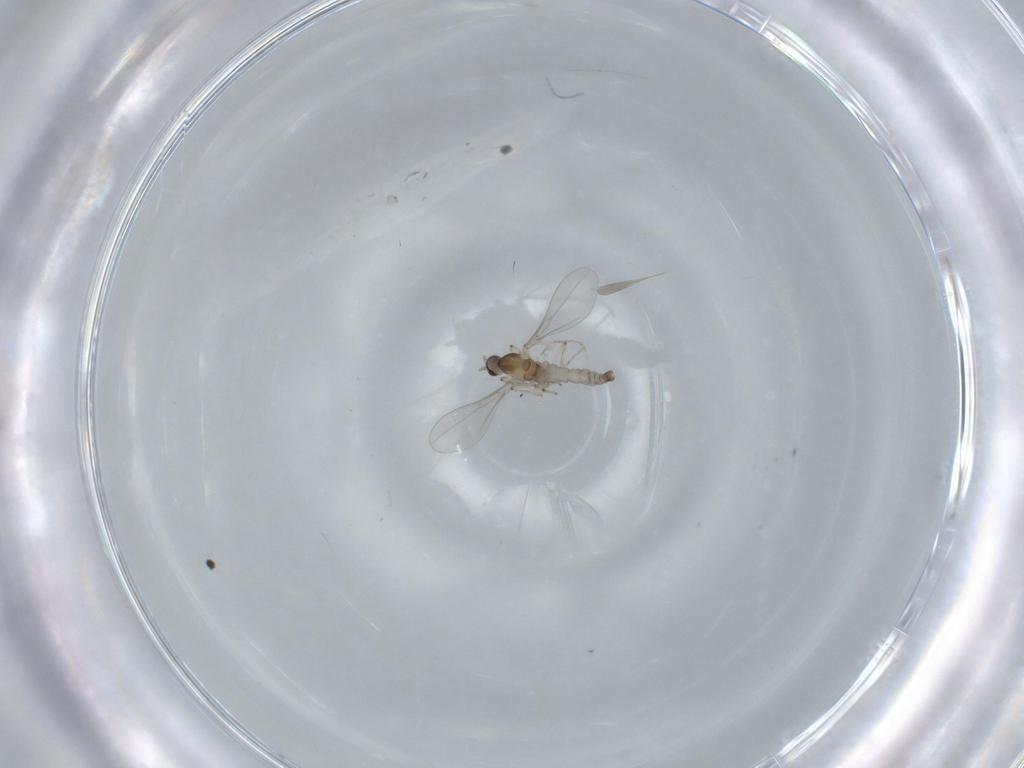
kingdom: Animalia
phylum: Arthropoda
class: Insecta
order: Diptera
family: Cecidomyiidae
